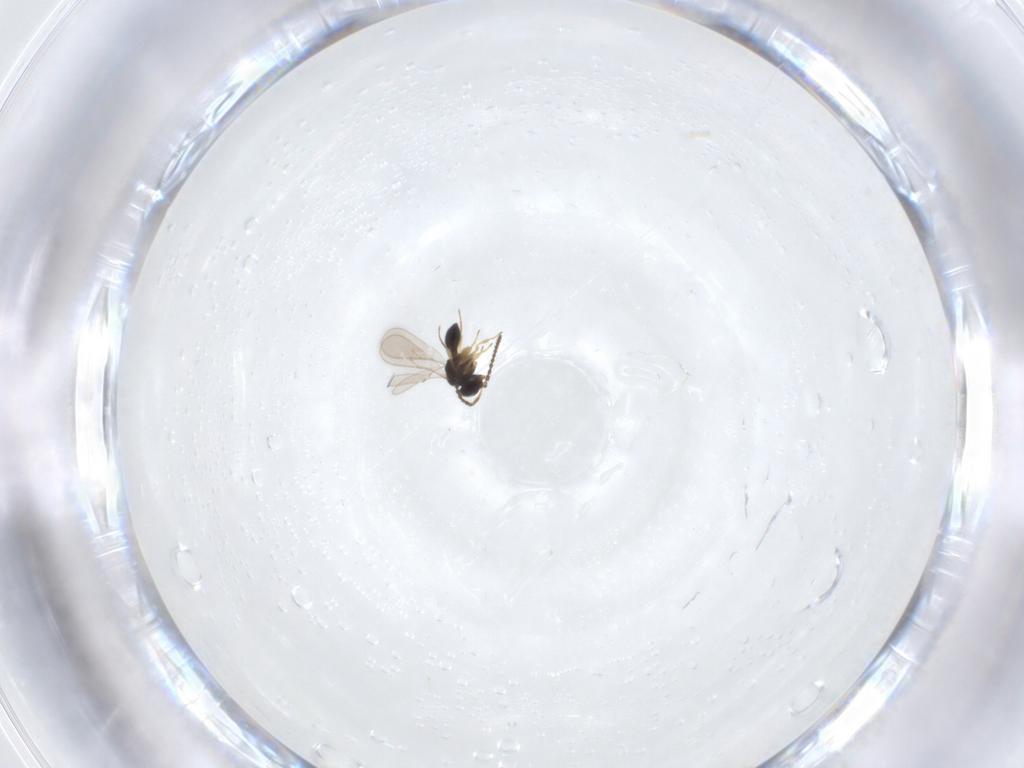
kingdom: Animalia
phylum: Arthropoda
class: Insecta
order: Hymenoptera
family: Scelionidae
